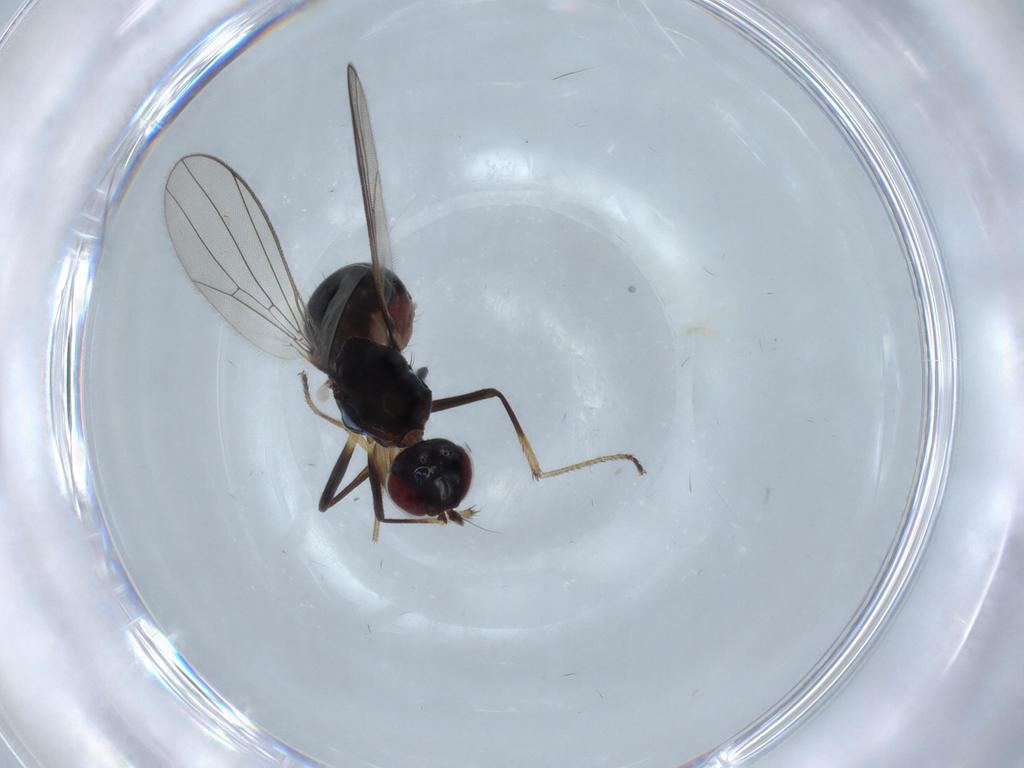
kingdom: Animalia
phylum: Arthropoda
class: Insecta
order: Diptera
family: Sepsidae
